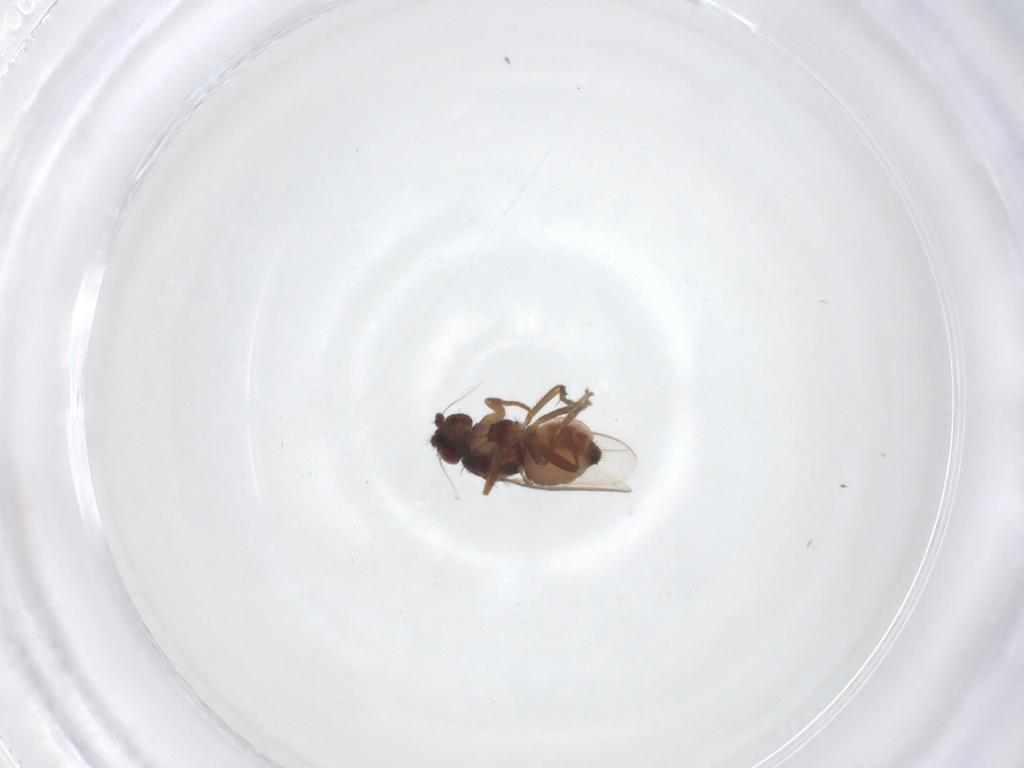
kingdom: Animalia
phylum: Arthropoda
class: Insecta
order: Diptera
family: Sphaeroceridae
